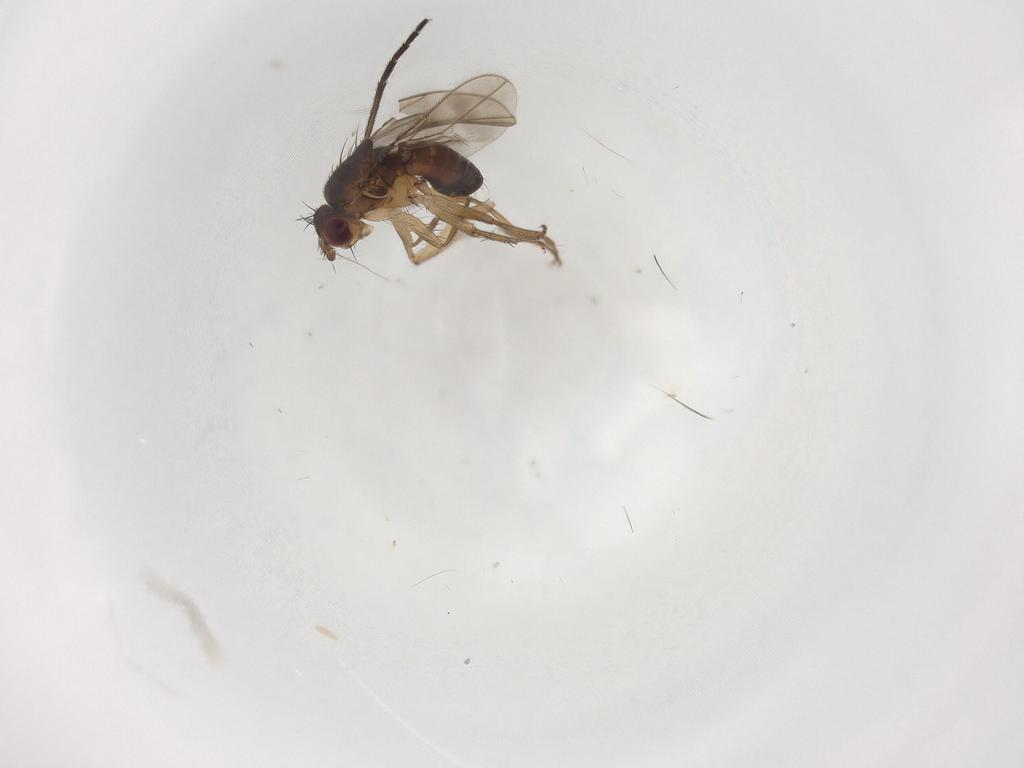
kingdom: Animalia
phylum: Arthropoda
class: Insecta
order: Diptera
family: Cecidomyiidae
